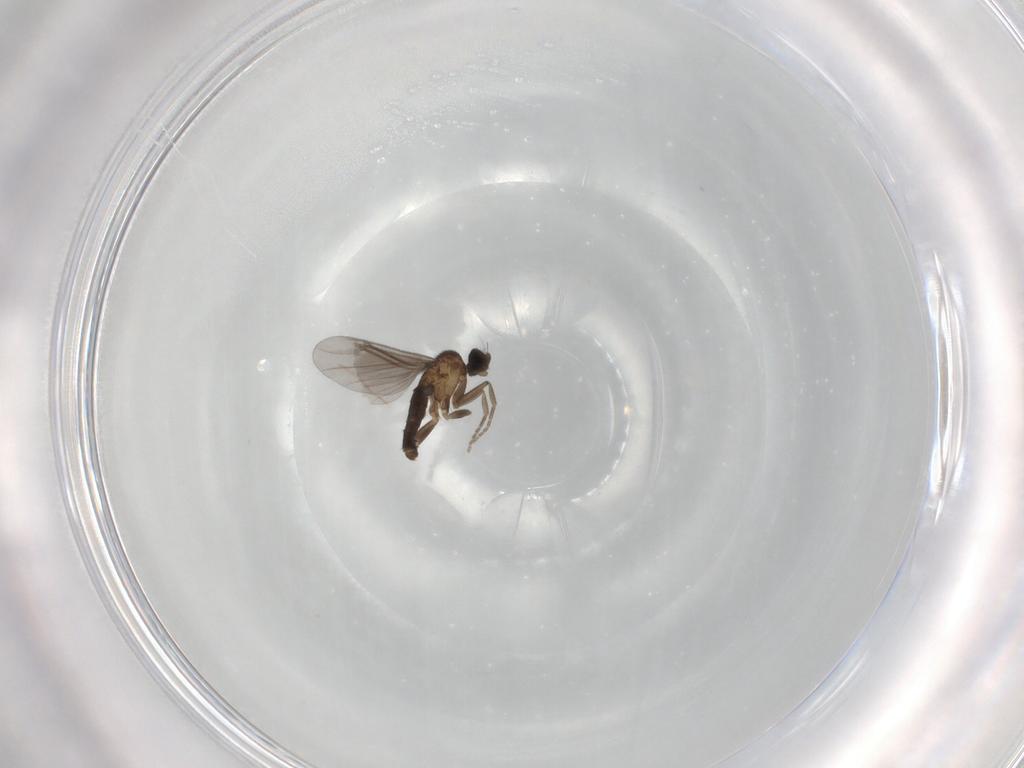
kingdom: Animalia
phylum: Arthropoda
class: Insecta
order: Diptera
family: Phoridae
